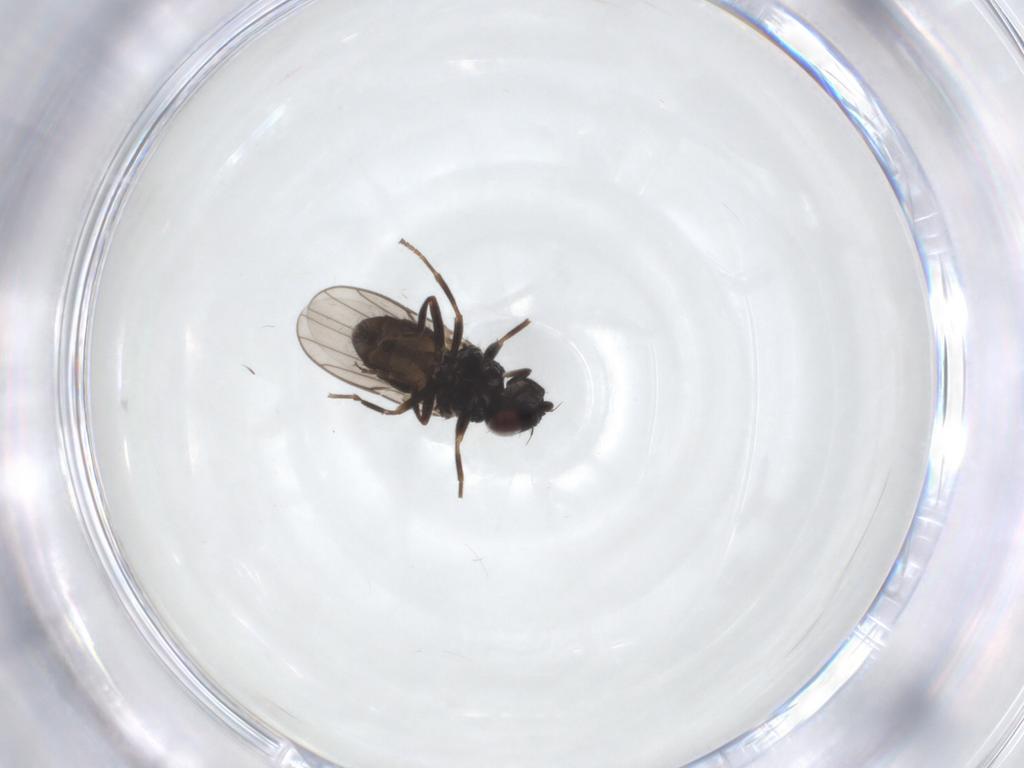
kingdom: Animalia
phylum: Arthropoda
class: Insecta
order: Diptera
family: Chloropidae
